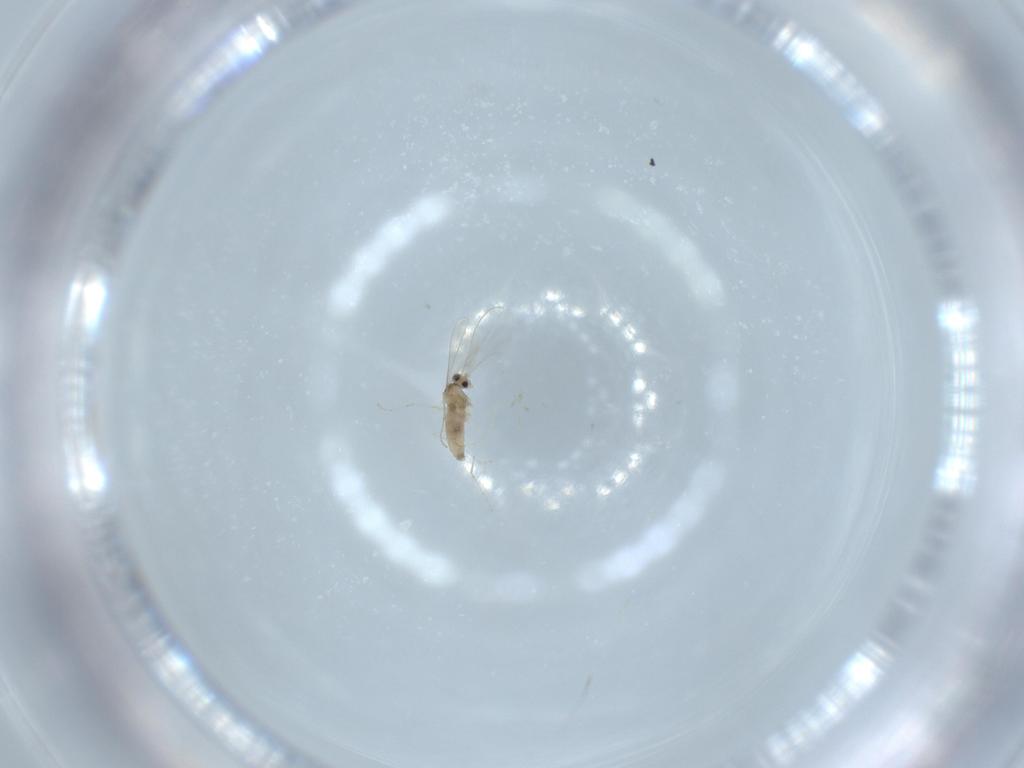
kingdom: Animalia
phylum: Arthropoda
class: Insecta
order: Diptera
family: Cecidomyiidae
